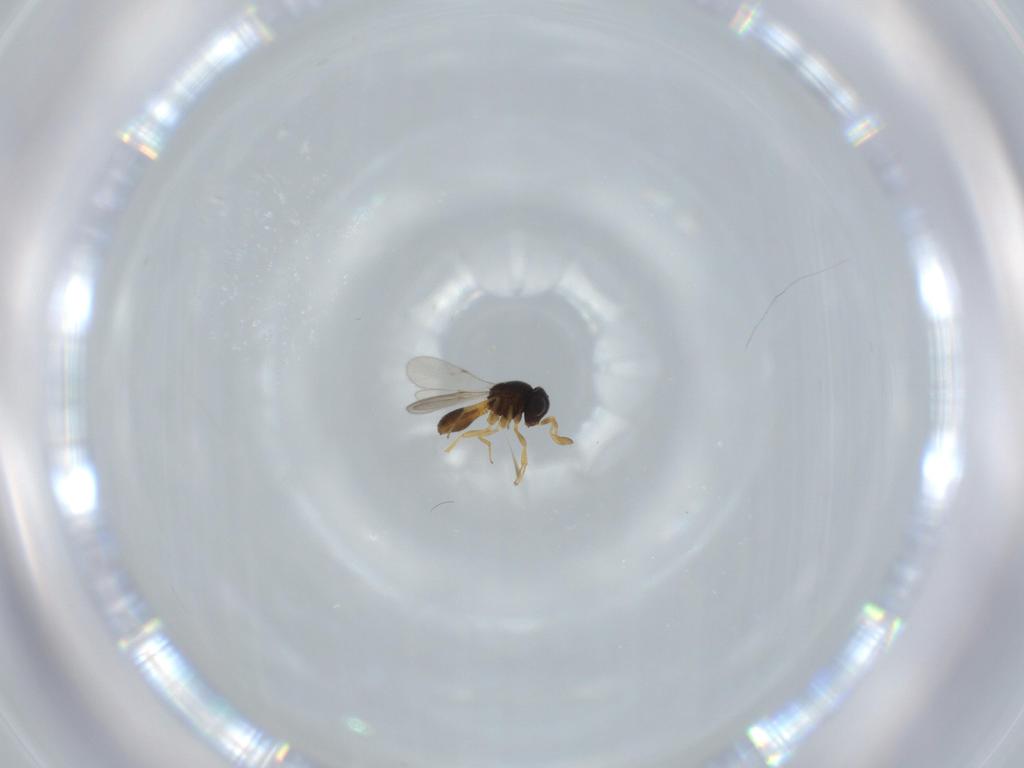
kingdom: Animalia
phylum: Arthropoda
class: Insecta
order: Hymenoptera
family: Scelionidae
